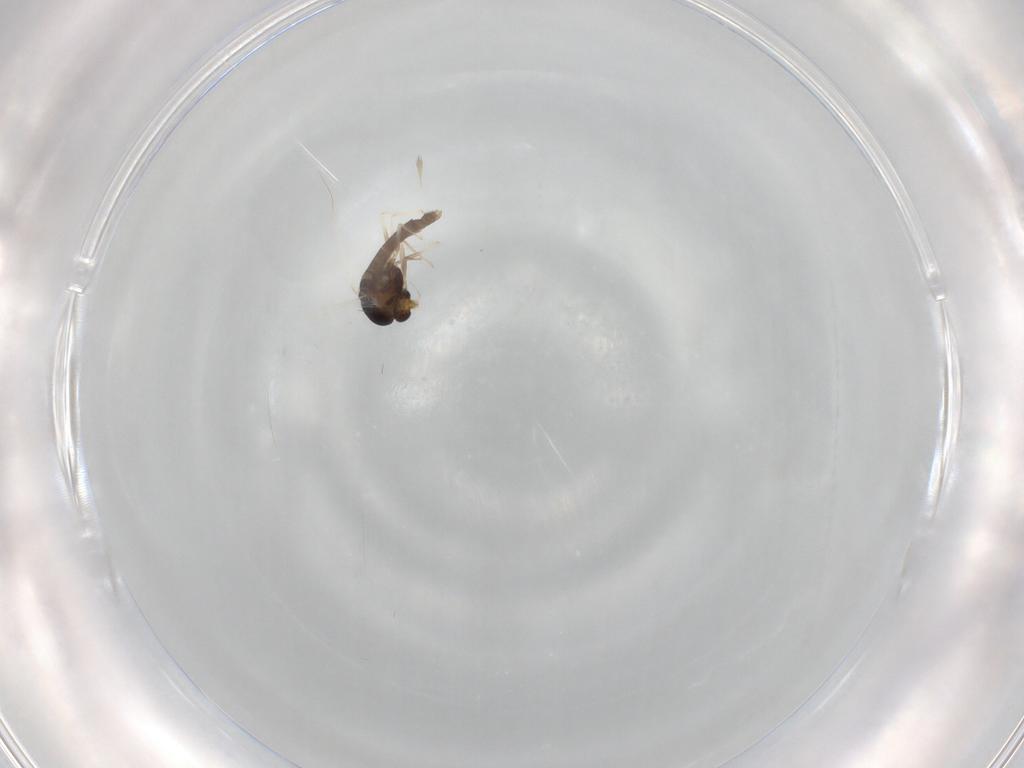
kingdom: Animalia
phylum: Arthropoda
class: Insecta
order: Diptera
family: Chironomidae
